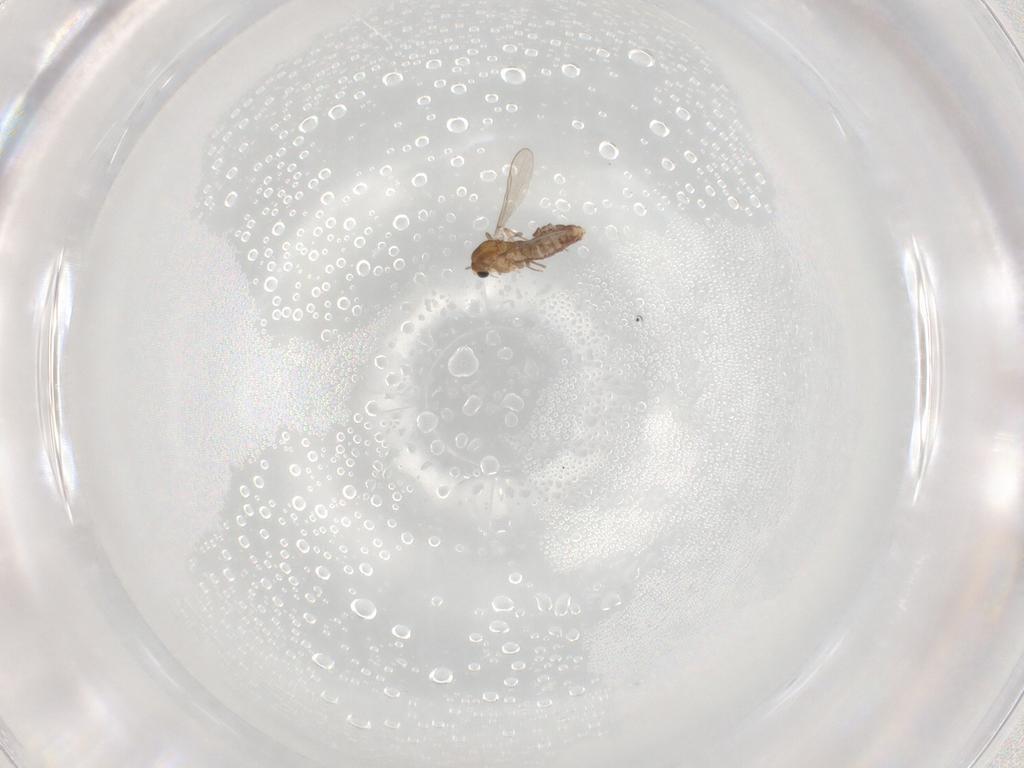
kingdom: Animalia
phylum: Arthropoda
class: Insecta
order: Diptera
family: Chironomidae
